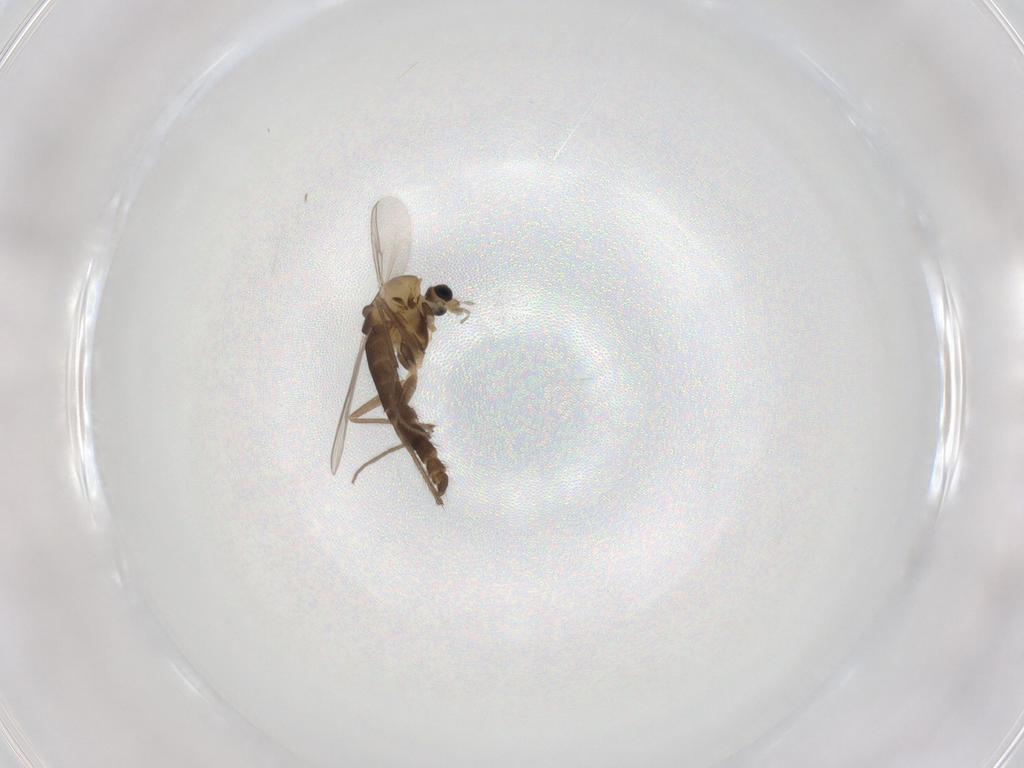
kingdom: Animalia
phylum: Arthropoda
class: Insecta
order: Diptera
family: Chironomidae
